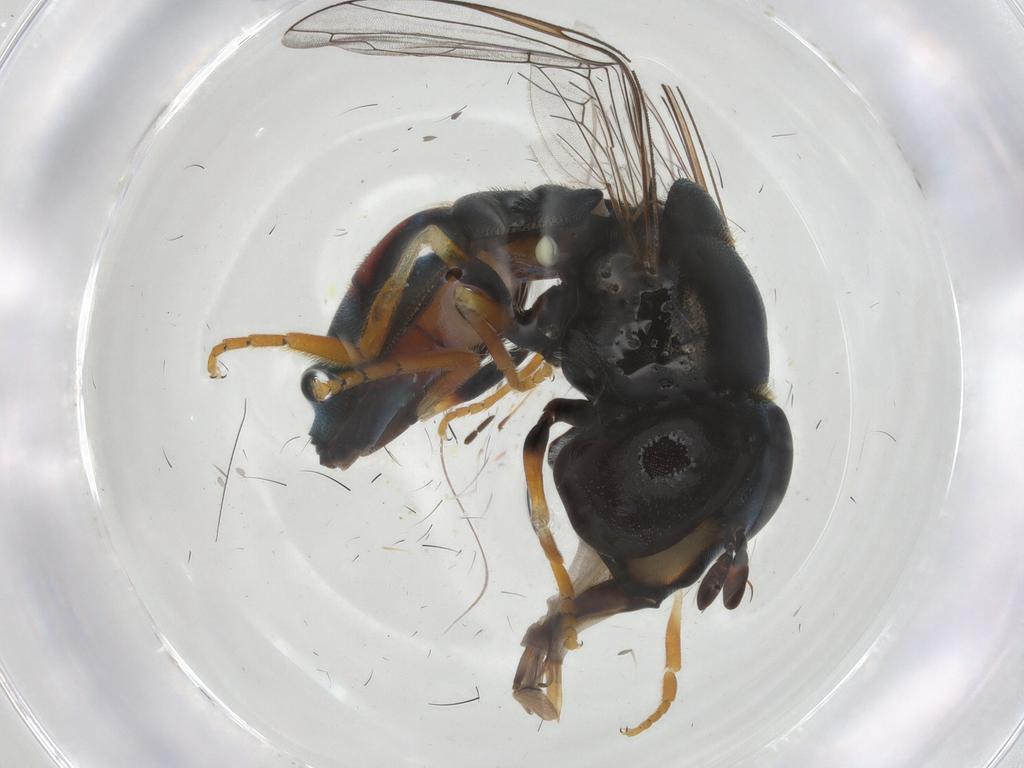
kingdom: Animalia
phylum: Arthropoda
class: Insecta
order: Diptera
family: Syrphidae
